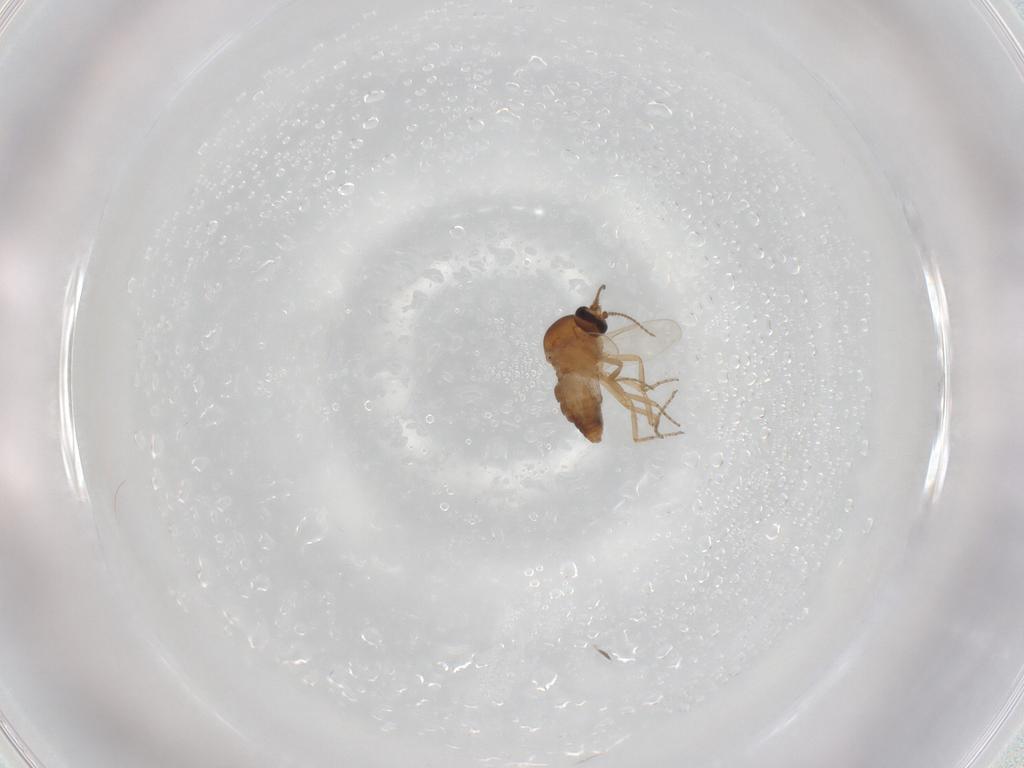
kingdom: Animalia
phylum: Arthropoda
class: Insecta
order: Diptera
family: Ceratopogonidae
